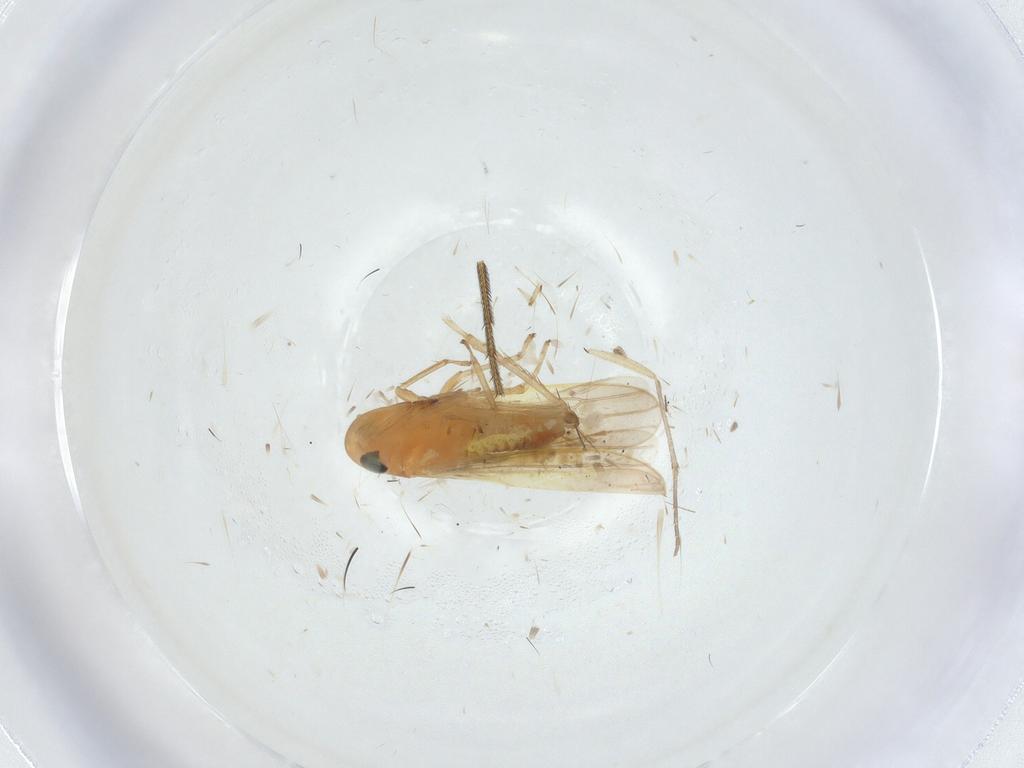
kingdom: Animalia
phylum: Arthropoda
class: Insecta
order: Hemiptera
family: Cicadellidae
